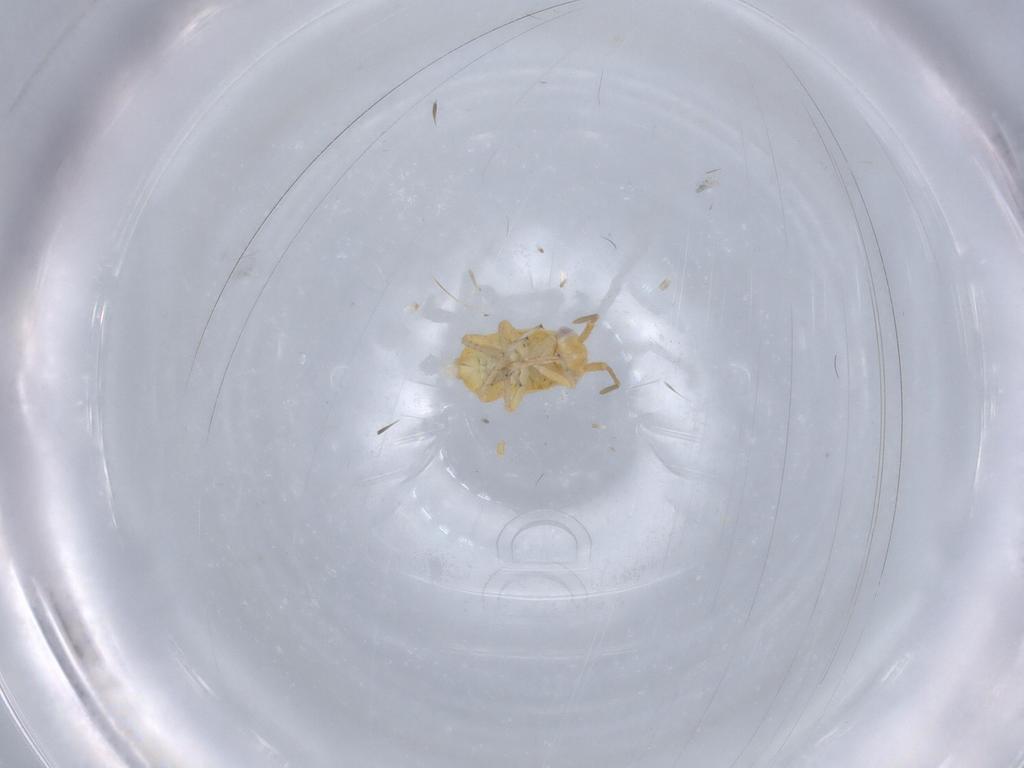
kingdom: Animalia
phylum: Arthropoda
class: Insecta
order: Hemiptera
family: Miridae
